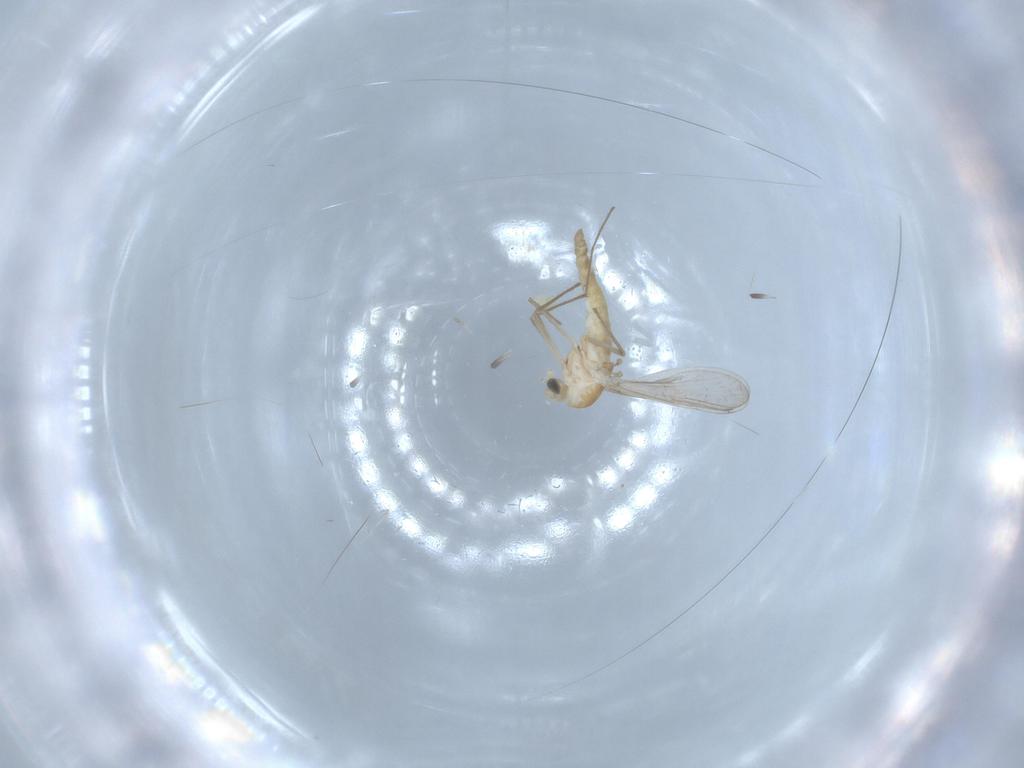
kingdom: Animalia
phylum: Arthropoda
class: Insecta
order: Diptera
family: Chironomidae
